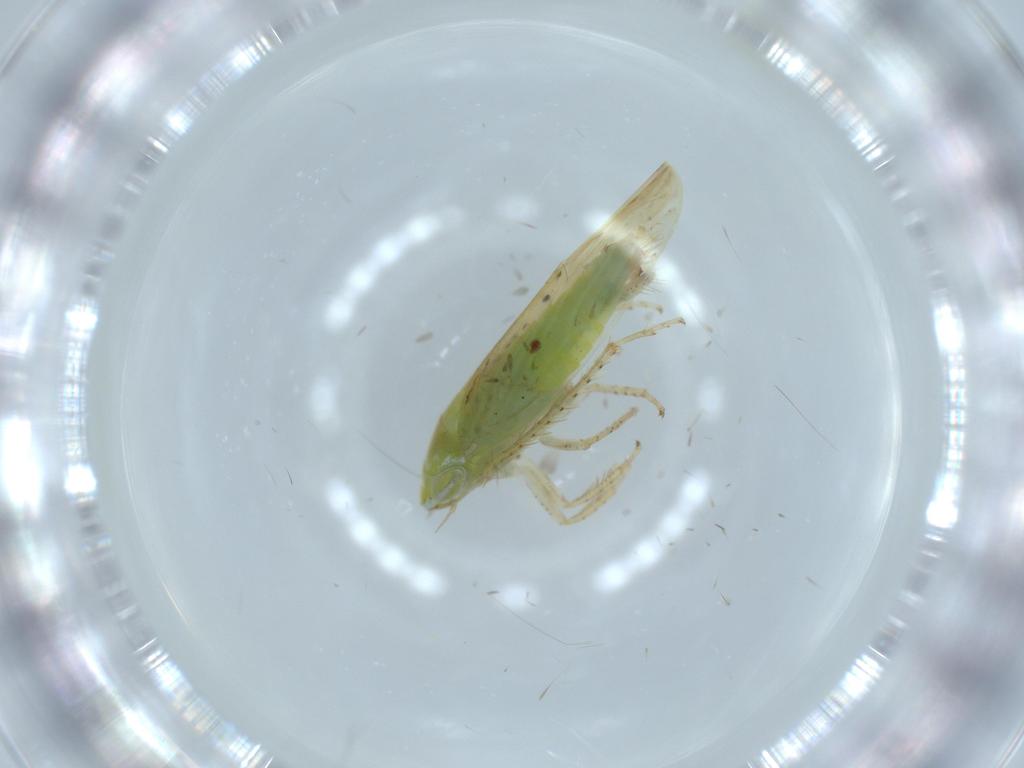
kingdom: Animalia
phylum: Arthropoda
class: Insecta
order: Hemiptera
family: Cicadellidae
